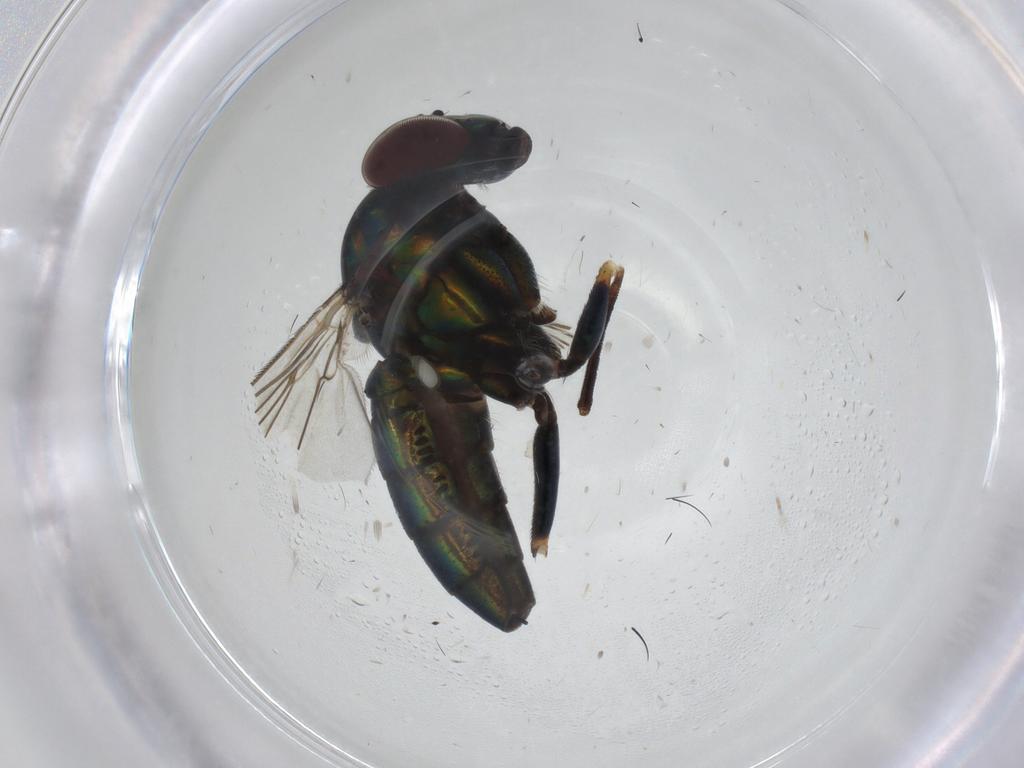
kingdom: Animalia
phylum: Arthropoda
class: Insecta
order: Diptera
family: Dolichopodidae
